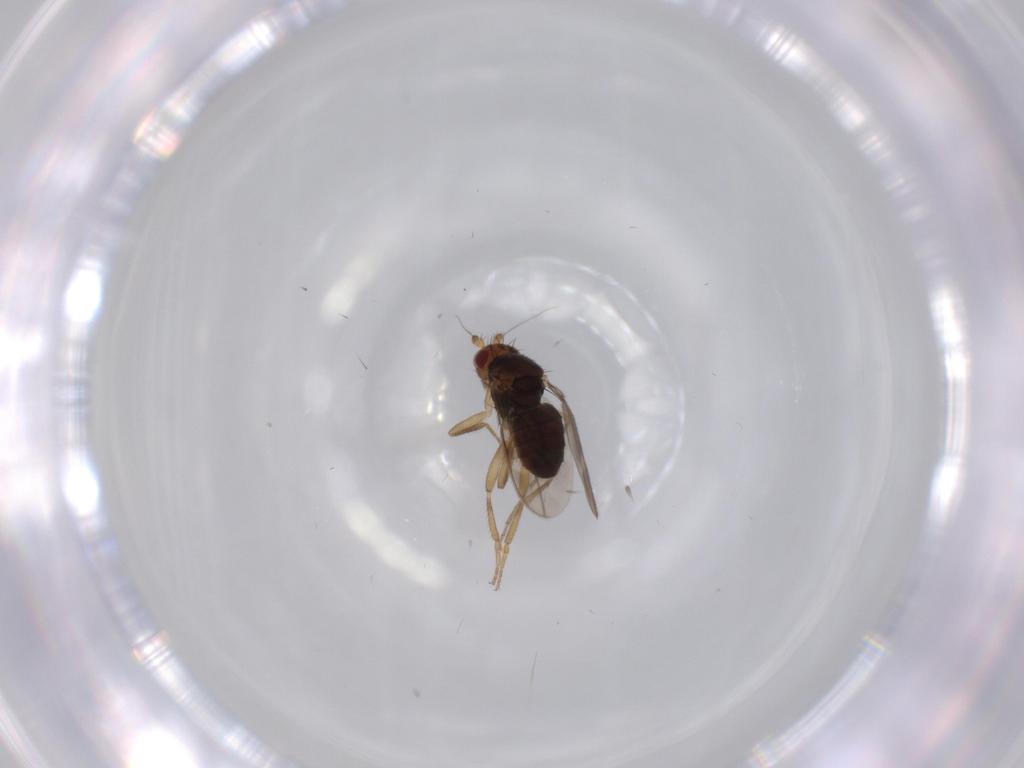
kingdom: Animalia
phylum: Arthropoda
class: Insecta
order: Diptera
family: Sphaeroceridae
